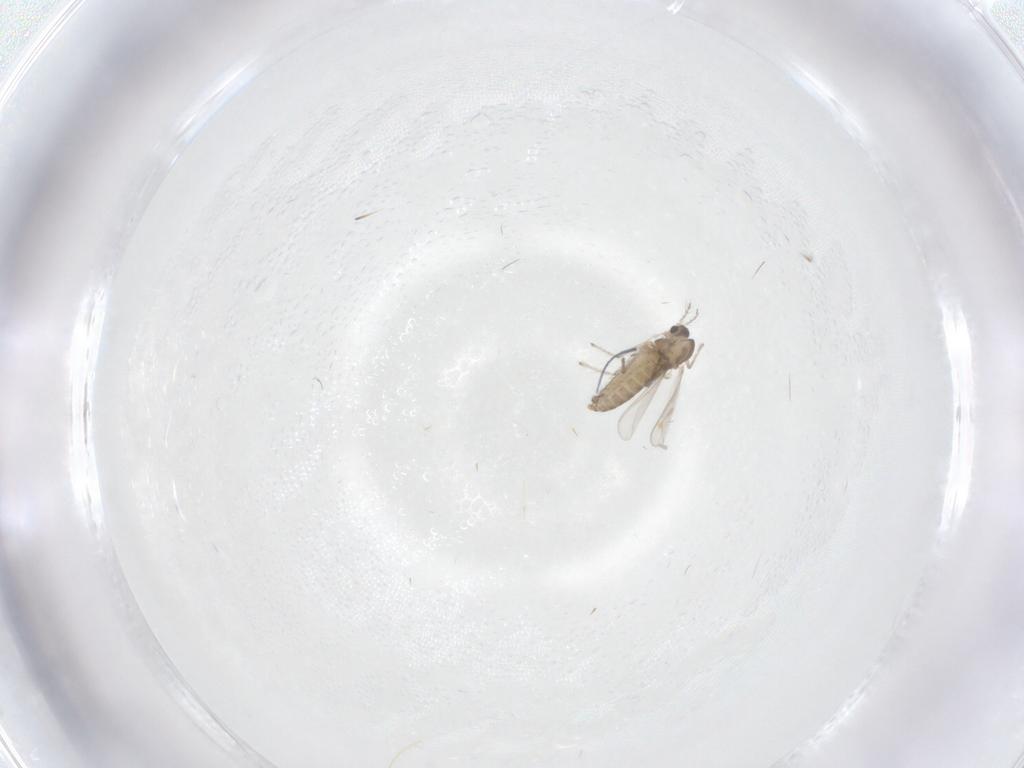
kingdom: Animalia
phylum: Arthropoda
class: Insecta
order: Diptera
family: Chironomidae
